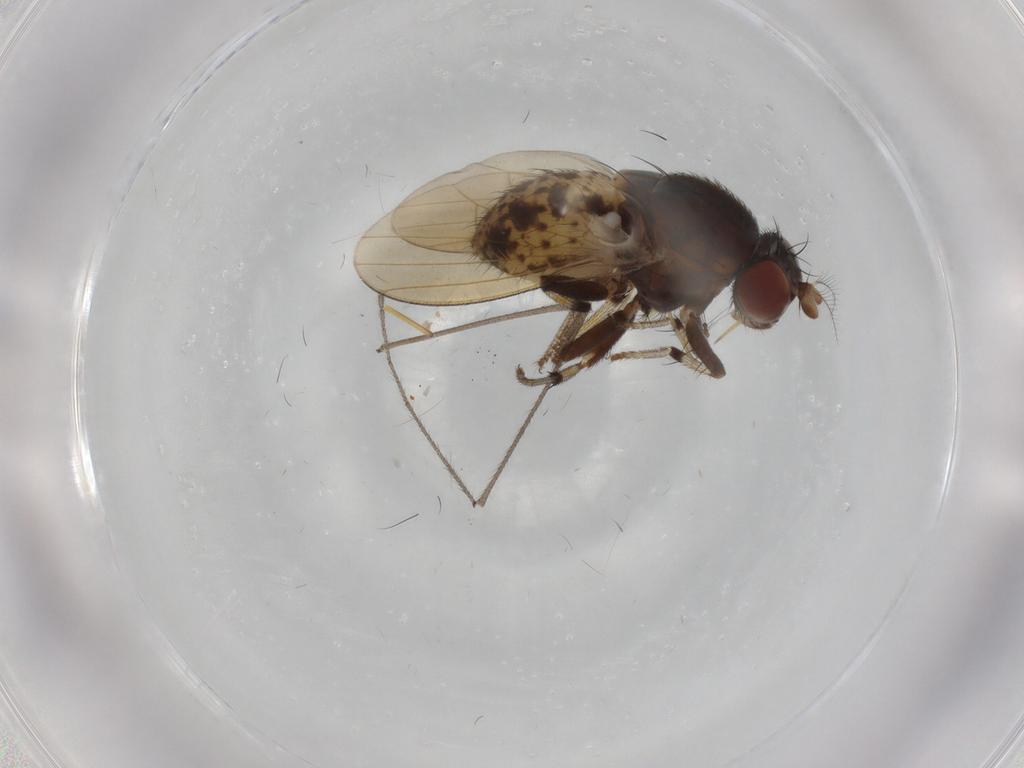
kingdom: Animalia
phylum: Arthropoda
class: Insecta
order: Diptera
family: Limoniidae
